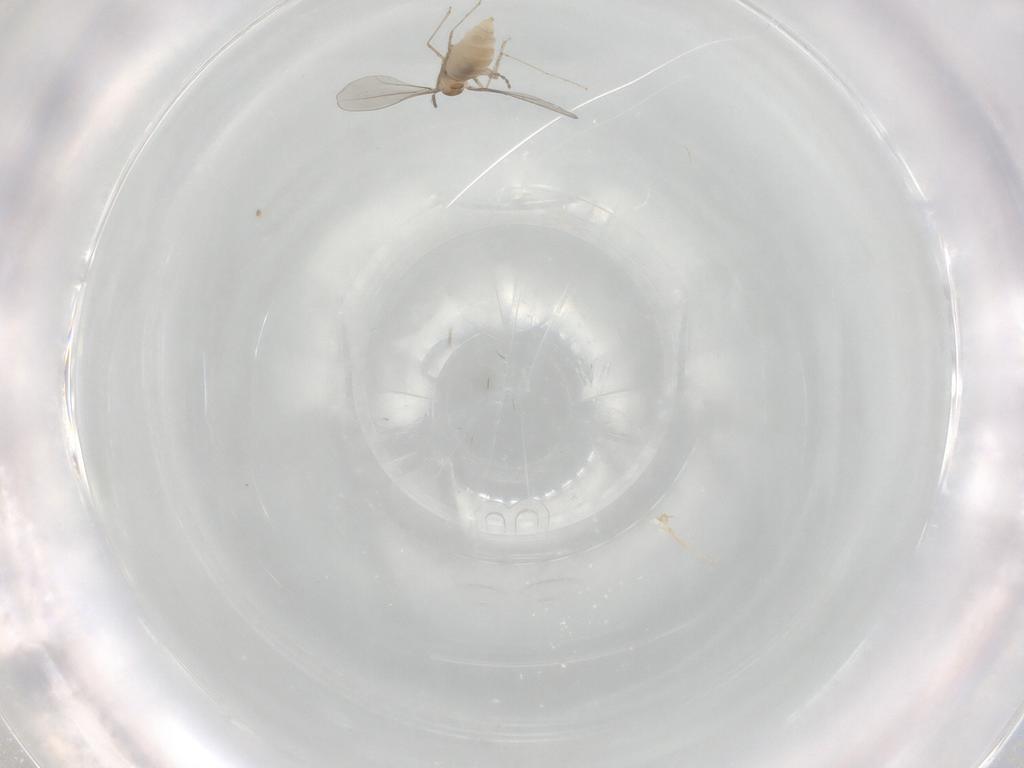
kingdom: Animalia
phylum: Arthropoda
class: Insecta
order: Diptera
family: Cecidomyiidae
